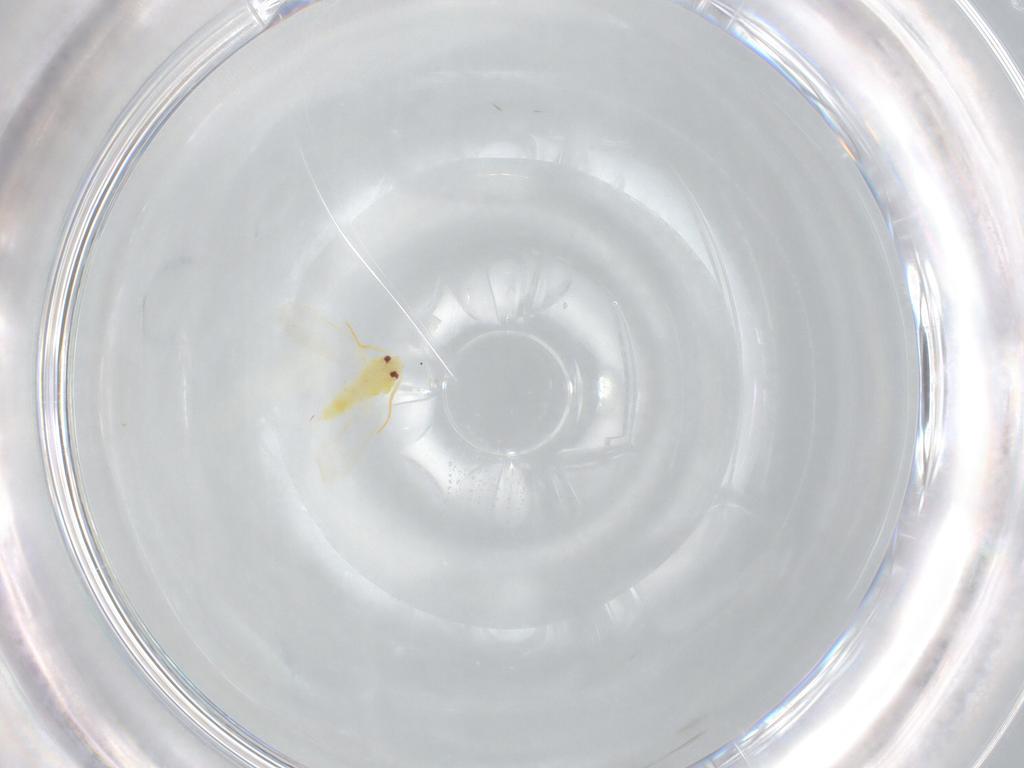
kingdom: Animalia
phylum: Arthropoda
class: Insecta
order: Hemiptera
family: Aleyrodidae
